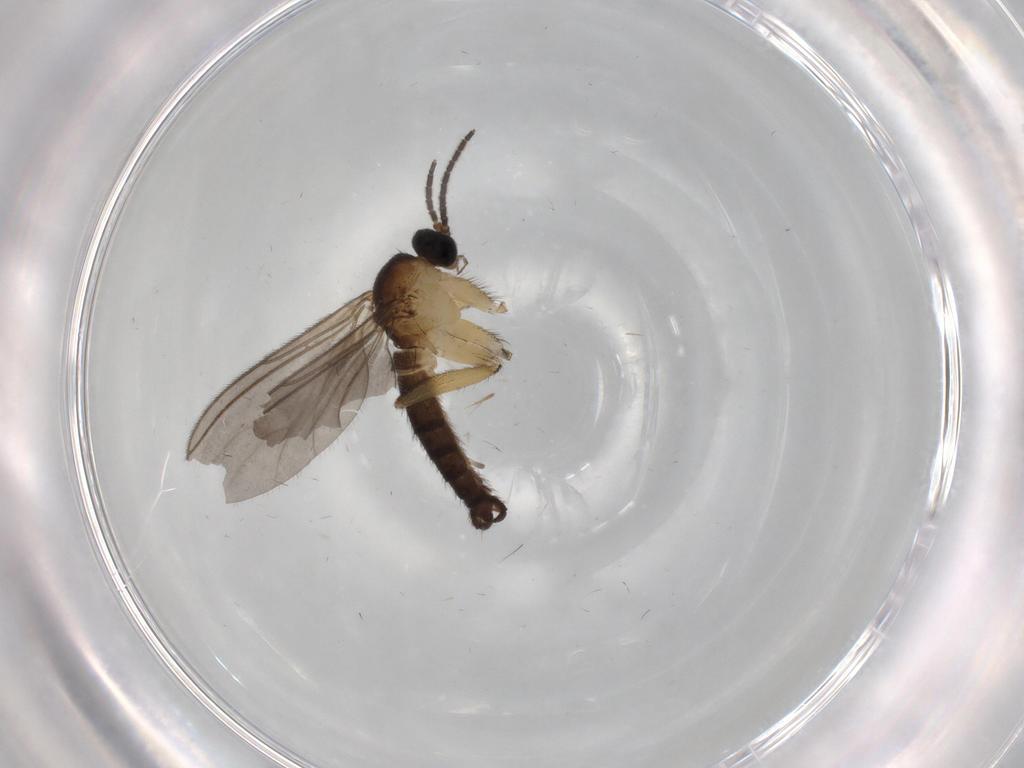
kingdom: Animalia
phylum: Arthropoda
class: Insecta
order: Diptera
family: Sciaridae
